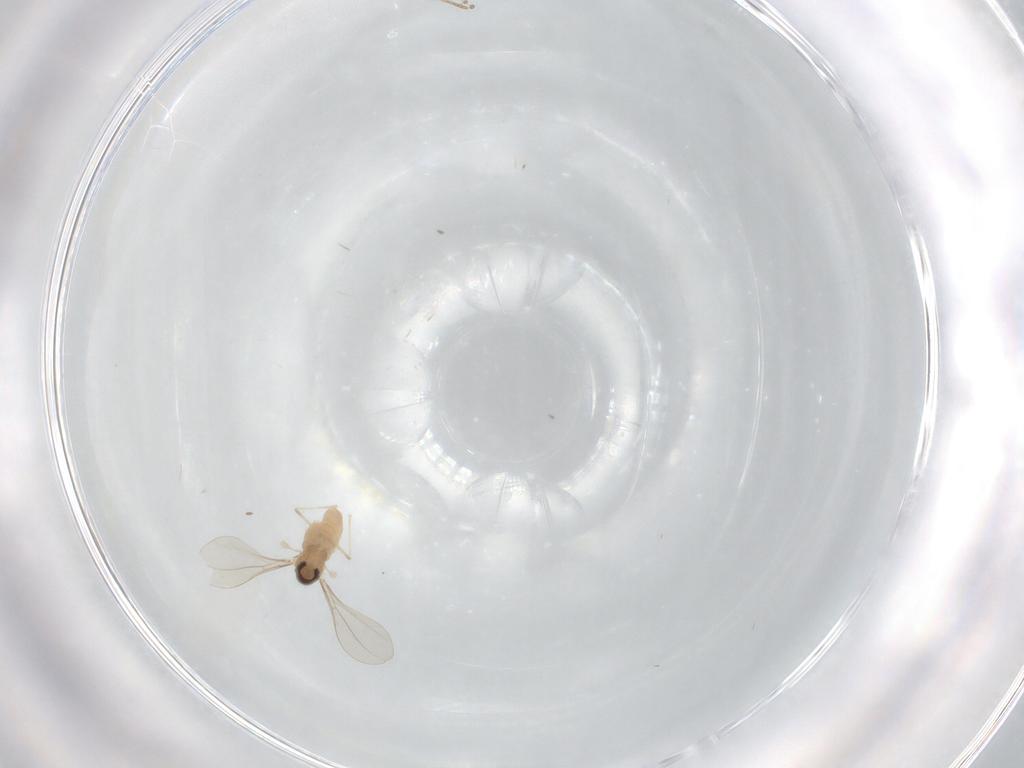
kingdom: Animalia
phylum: Arthropoda
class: Insecta
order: Diptera
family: Psychodidae
